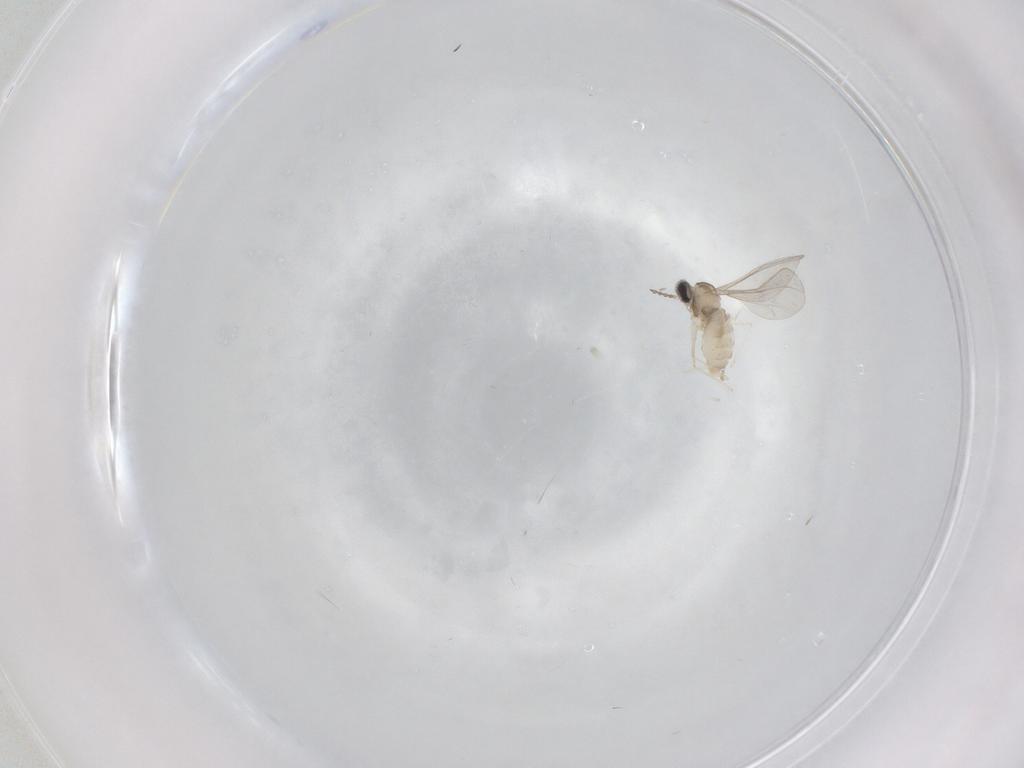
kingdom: Animalia
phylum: Arthropoda
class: Insecta
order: Diptera
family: Cecidomyiidae
